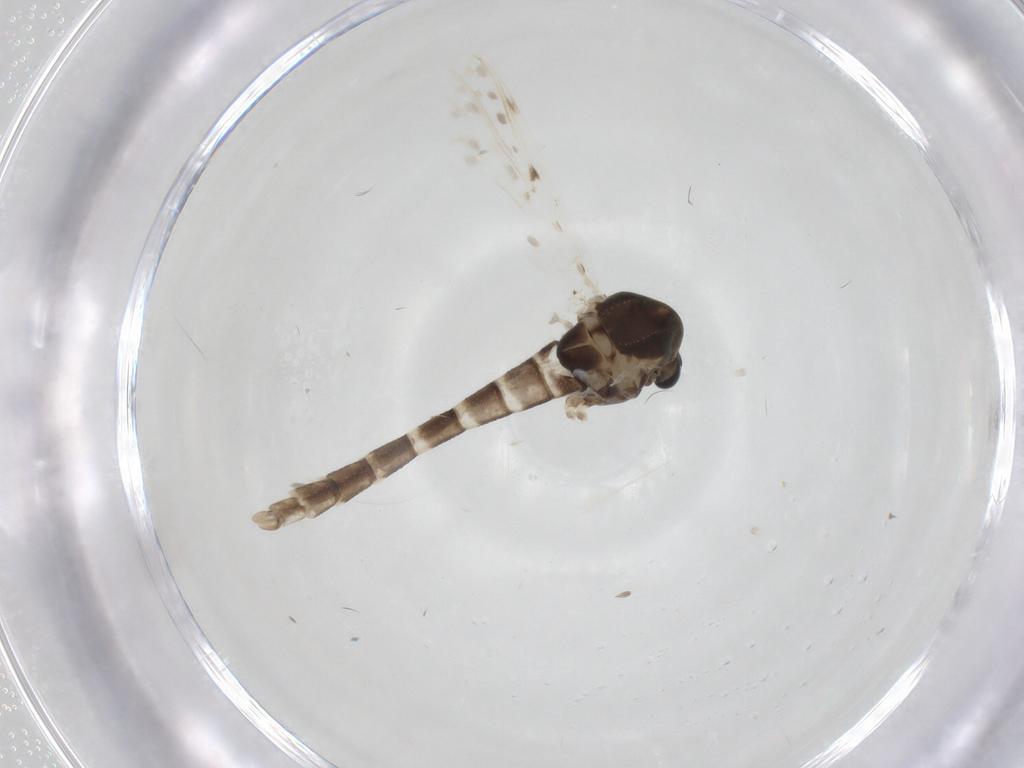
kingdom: Animalia
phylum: Arthropoda
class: Insecta
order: Diptera
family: Chironomidae
